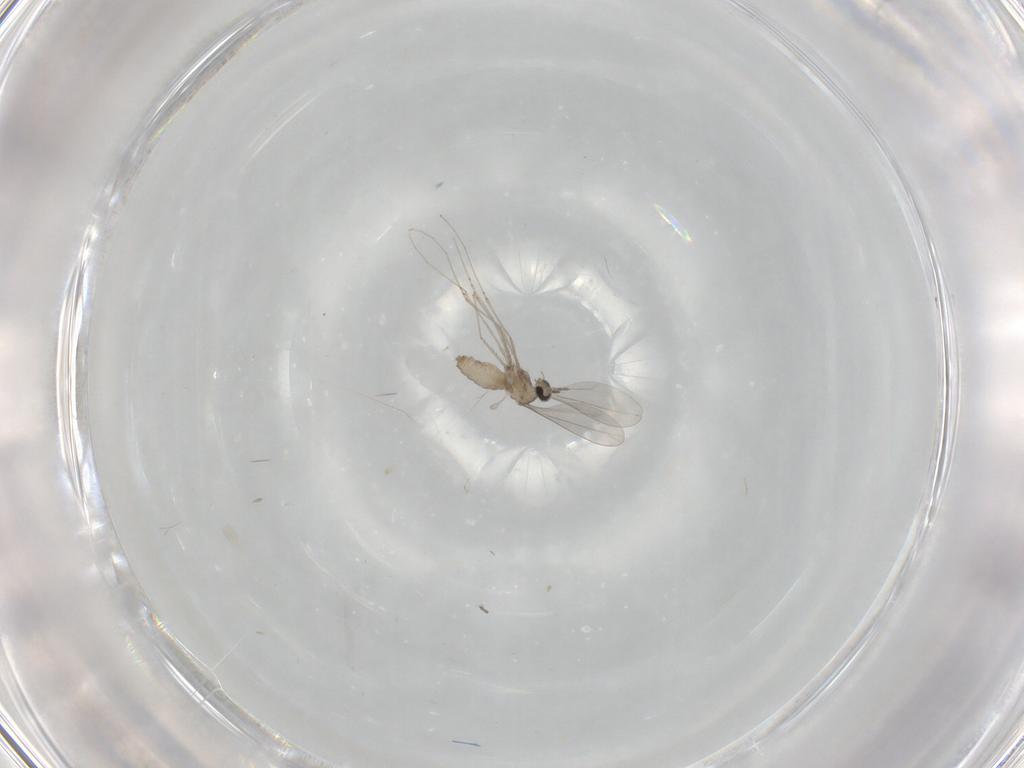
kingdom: Animalia
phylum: Arthropoda
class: Insecta
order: Diptera
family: Cecidomyiidae
